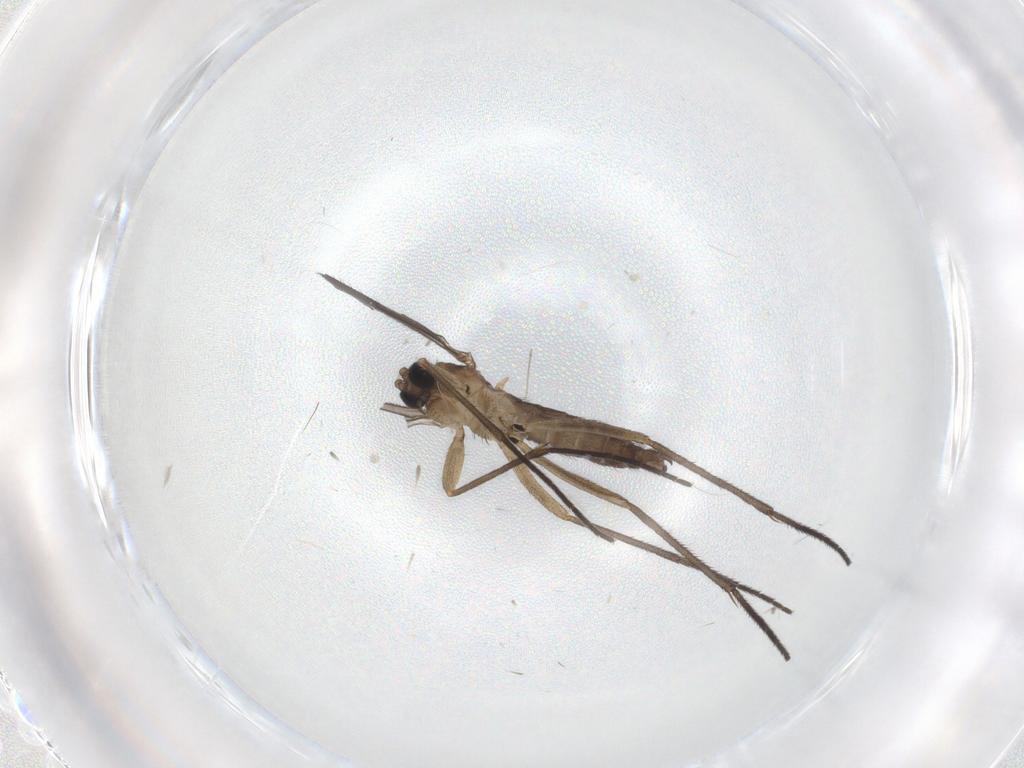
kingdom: Animalia
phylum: Arthropoda
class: Insecta
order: Diptera
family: Sciaridae
